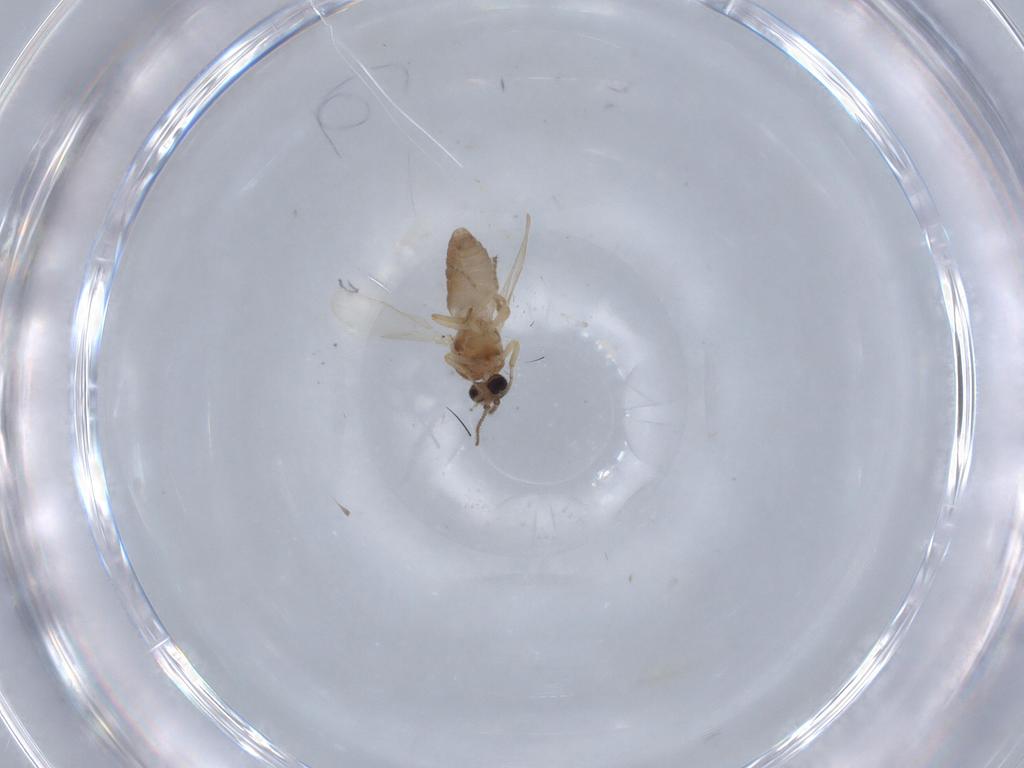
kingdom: Animalia
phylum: Arthropoda
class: Insecta
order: Diptera
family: Ceratopogonidae
